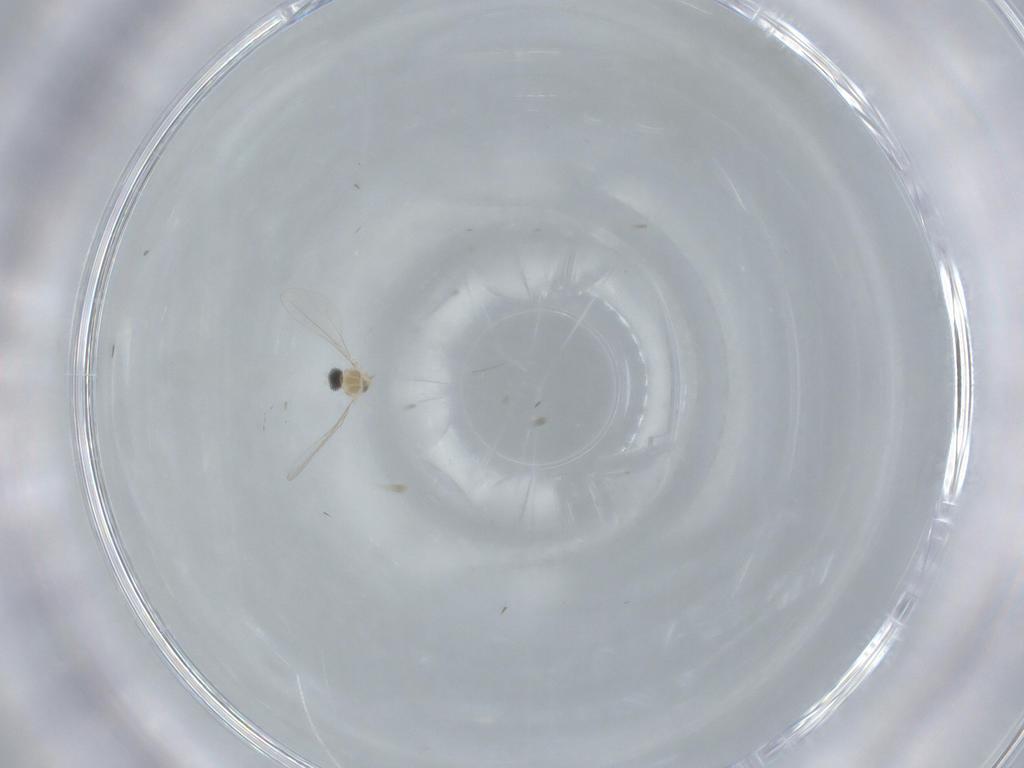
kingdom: Animalia
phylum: Arthropoda
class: Insecta
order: Diptera
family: Cecidomyiidae
